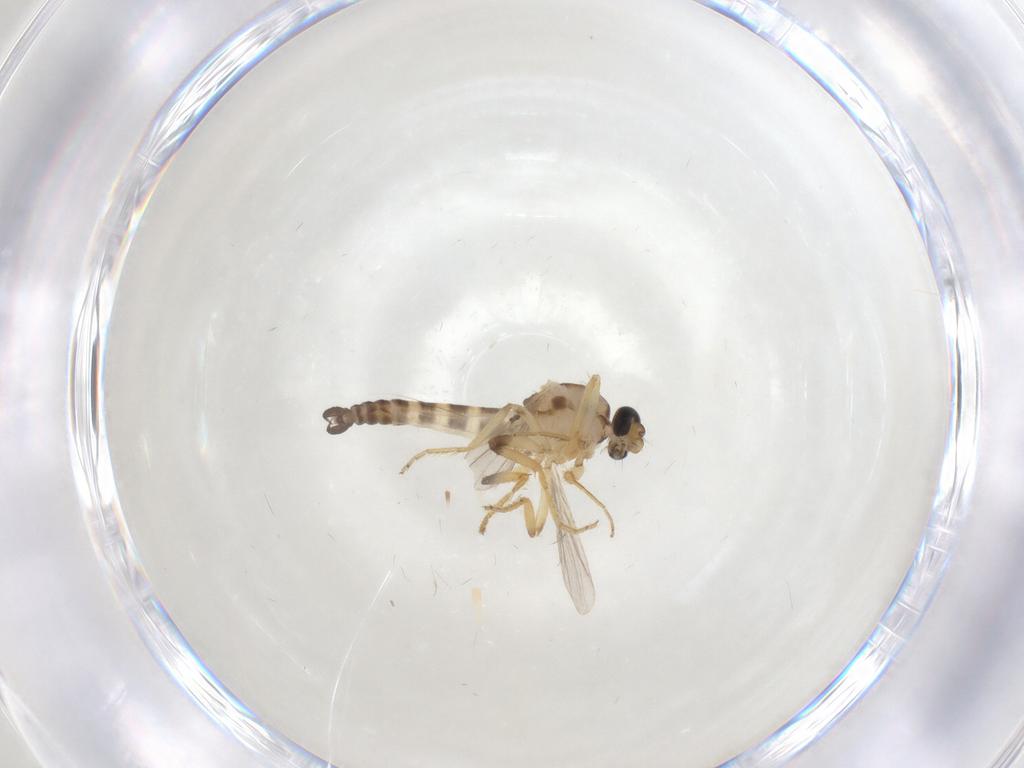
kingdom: Animalia
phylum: Arthropoda
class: Insecta
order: Diptera
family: Ceratopogonidae
